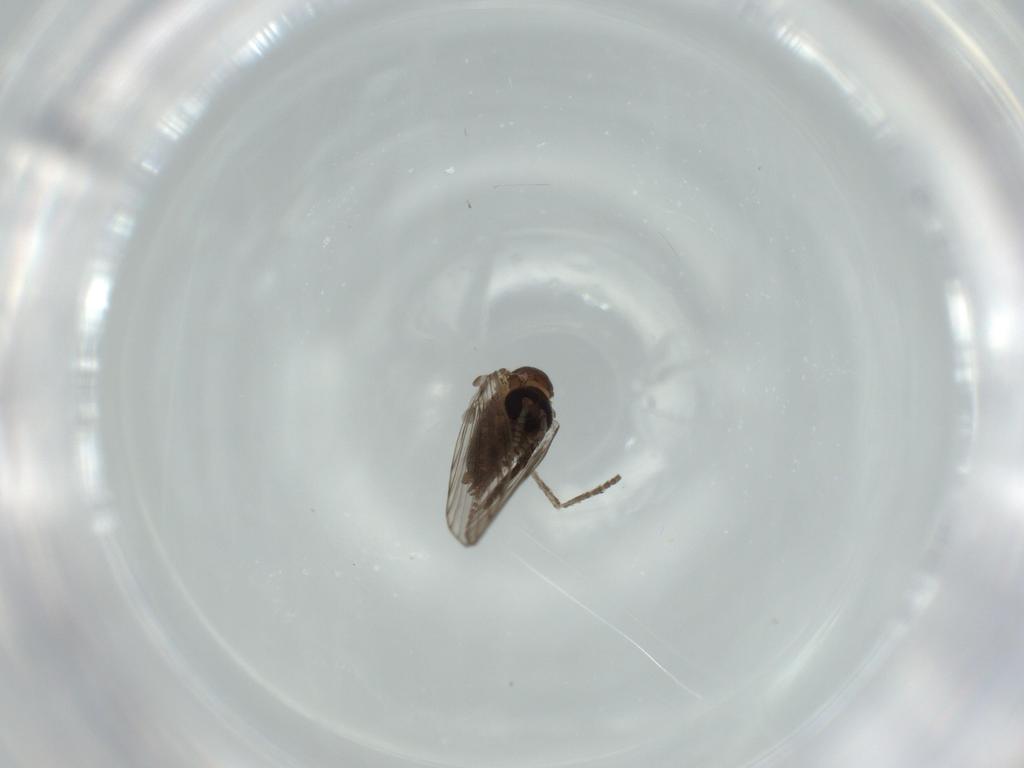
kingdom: Animalia
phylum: Arthropoda
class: Insecta
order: Diptera
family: Psychodidae
